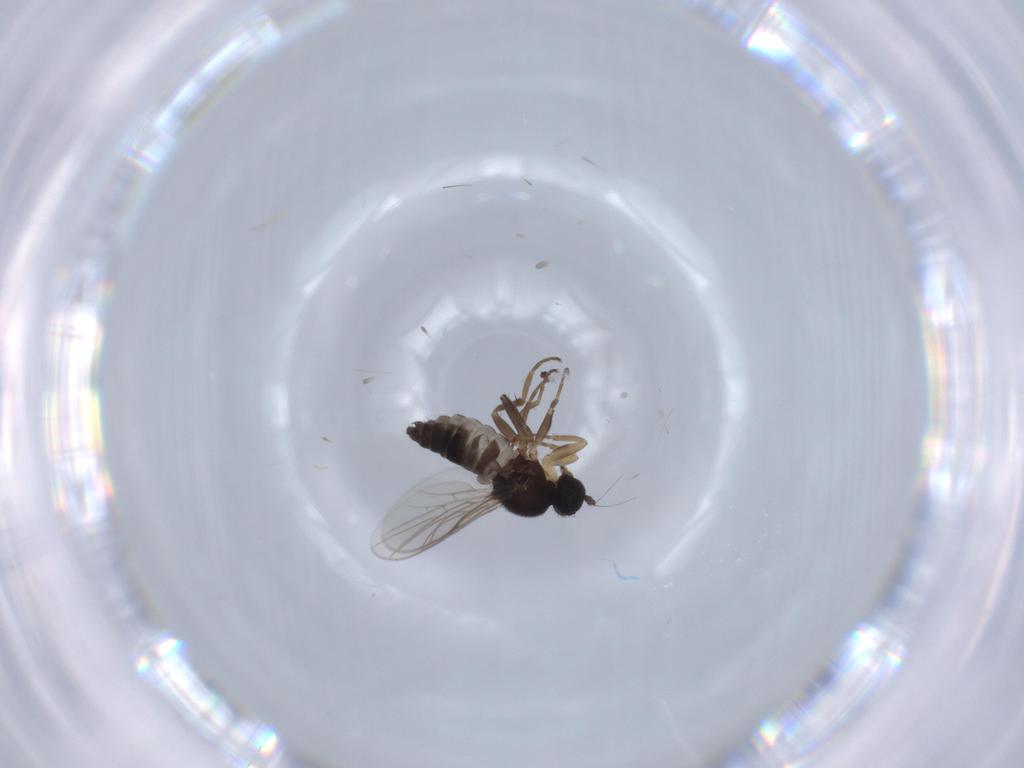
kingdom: Animalia
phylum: Arthropoda
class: Insecta
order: Diptera
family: Hybotidae
